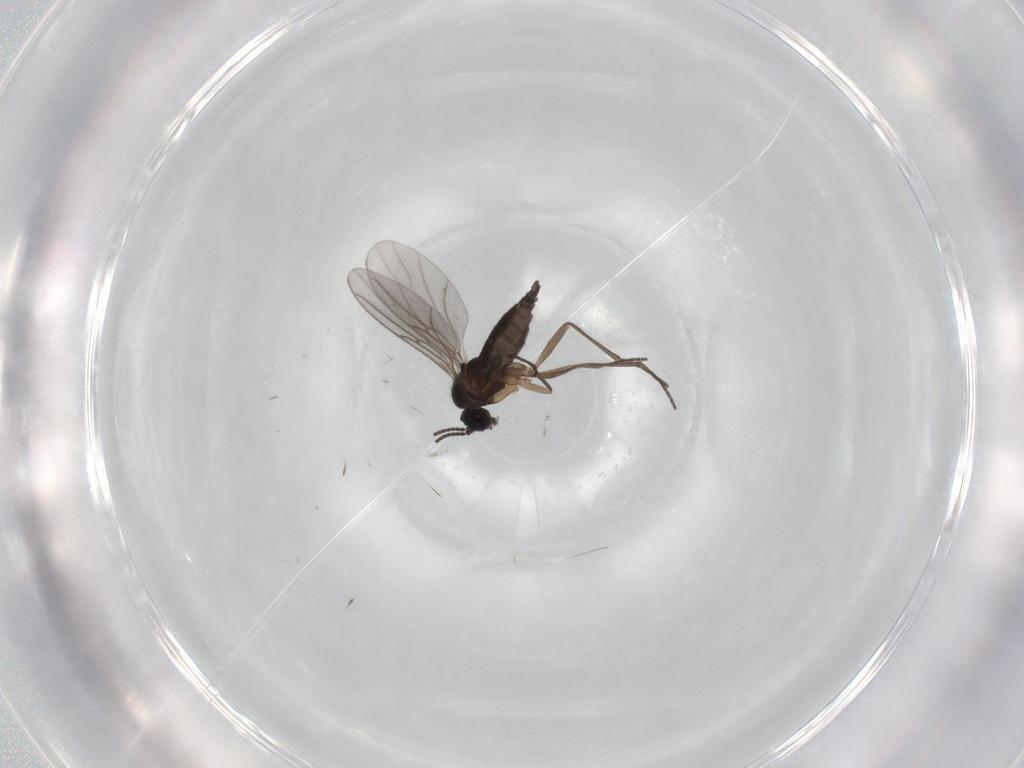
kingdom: Animalia
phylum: Arthropoda
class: Insecta
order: Diptera
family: Sciaridae
